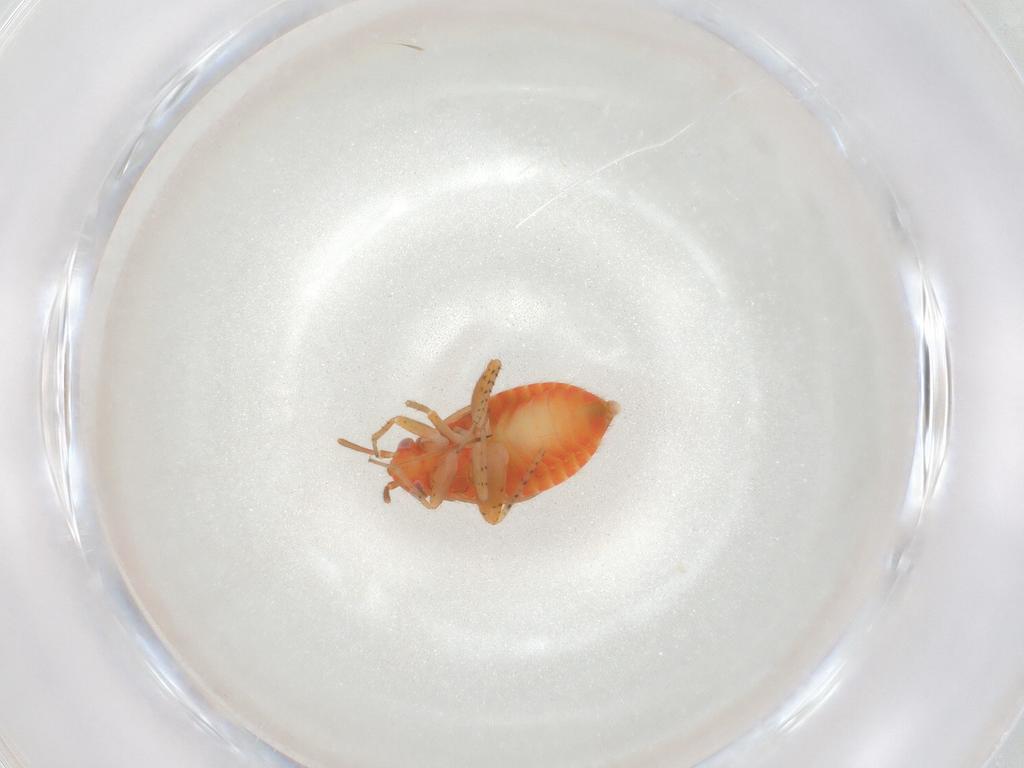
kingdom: Animalia
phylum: Arthropoda
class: Insecta
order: Hemiptera
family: Miridae
